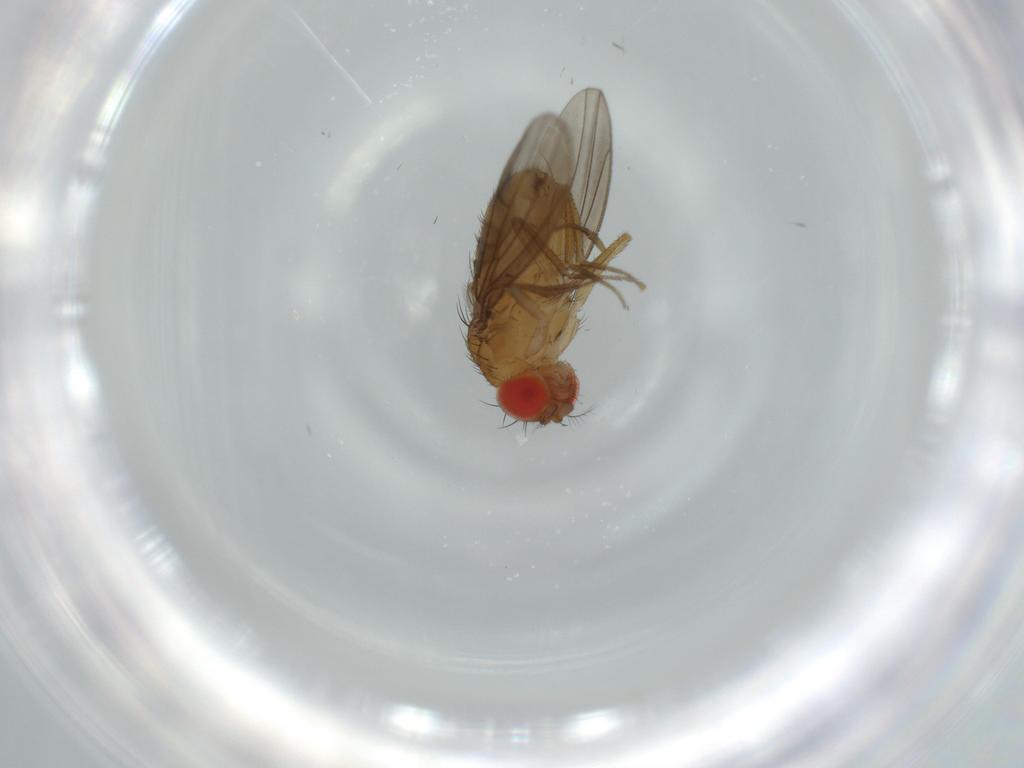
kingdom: Animalia
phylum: Arthropoda
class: Insecta
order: Diptera
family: Drosophilidae
